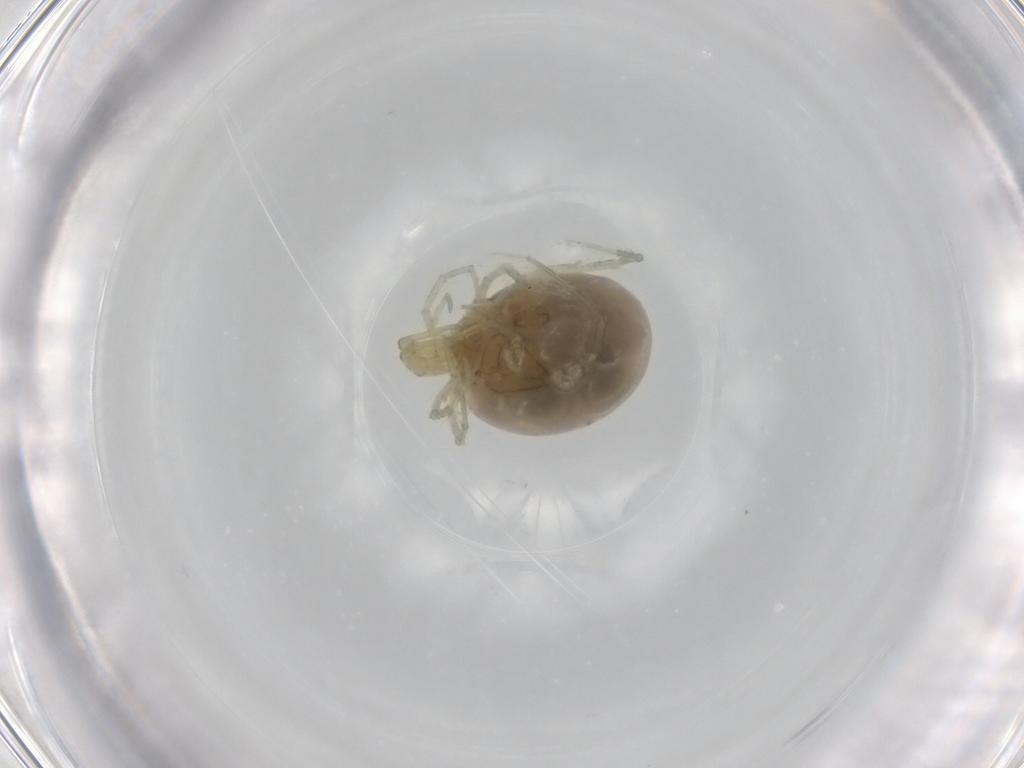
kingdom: Animalia
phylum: Arthropoda
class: Arachnida
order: Trombidiformes
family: Limnesiidae
